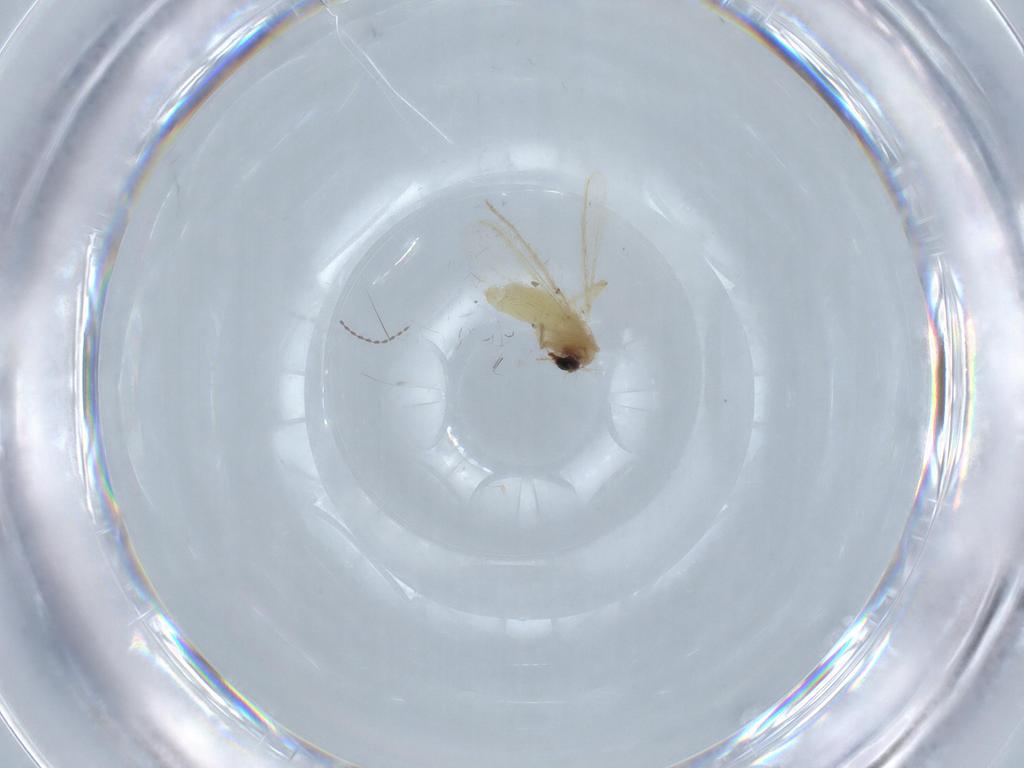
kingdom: Animalia
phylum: Arthropoda
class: Insecta
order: Diptera
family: Chironomidae
